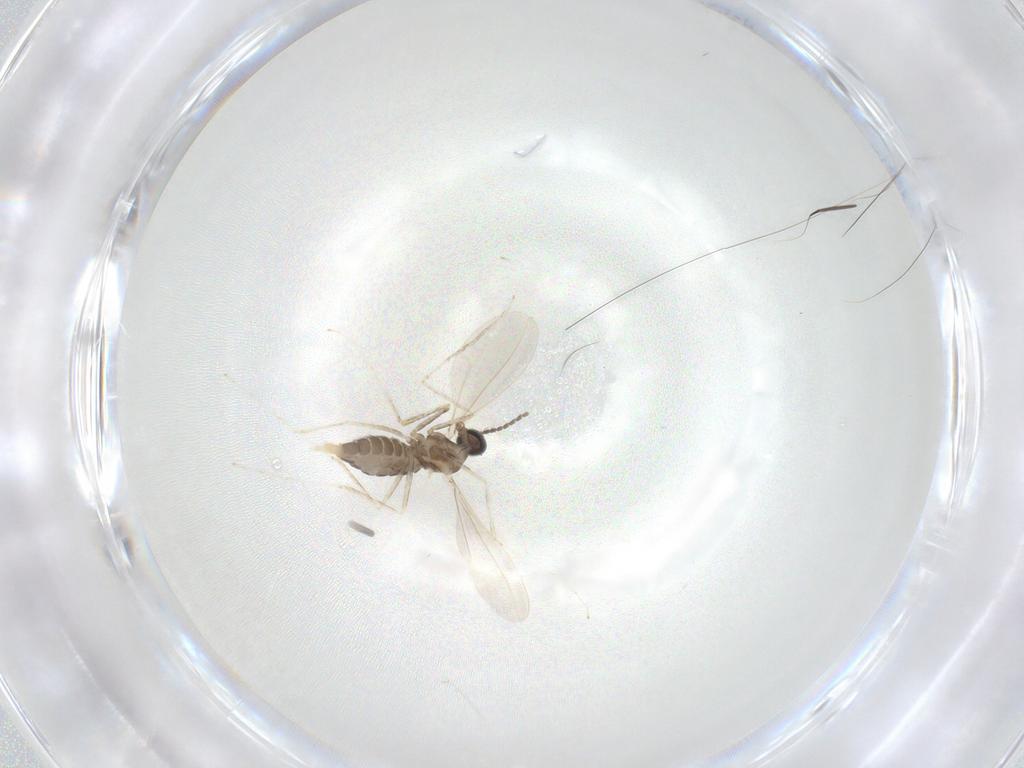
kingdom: Animalia
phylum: Arthropoda
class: Insecta
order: Diptera
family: Cecidomyiidae
